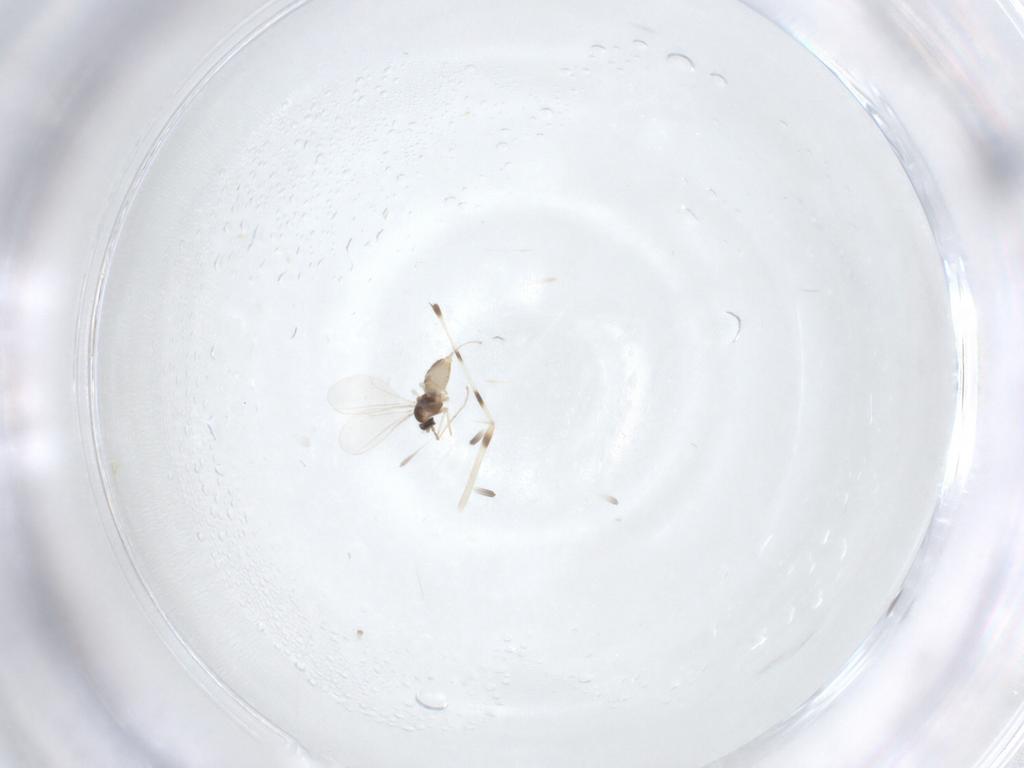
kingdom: Animalia
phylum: Arthropoda
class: Insecta
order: Diptera
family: Cecidomyiidae
